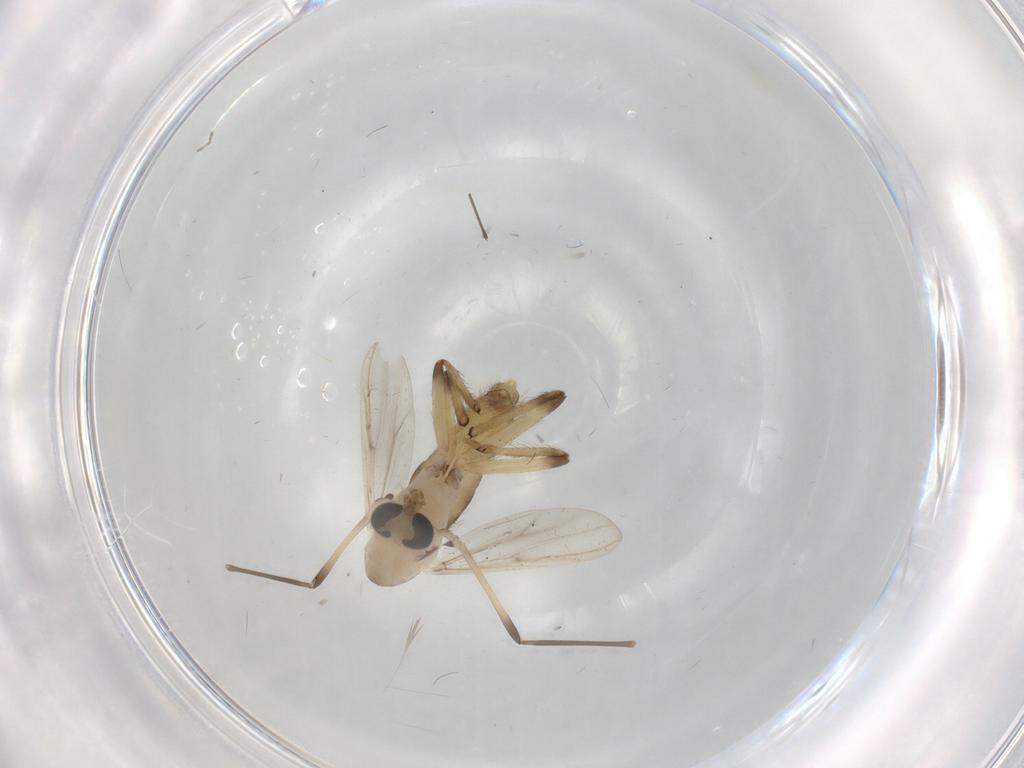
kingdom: Animalia
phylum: Arthropoda
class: Insecta
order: Diptera
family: Chironomidae
